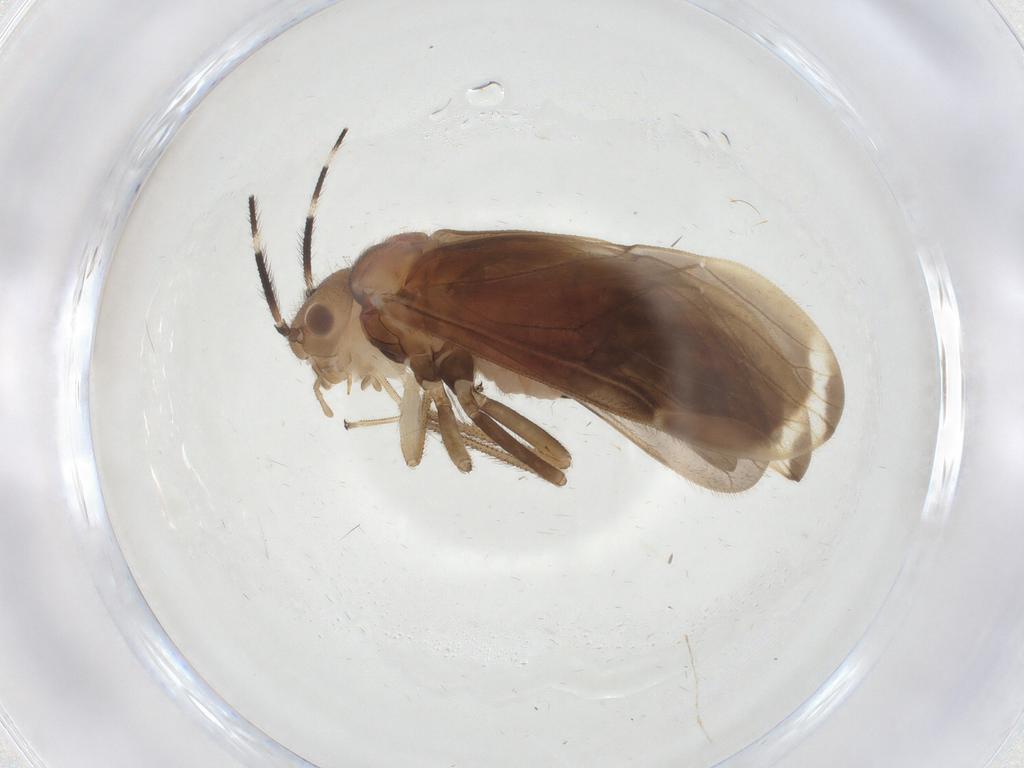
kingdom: Animalia
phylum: Arthropoda
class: Insecta
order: Psocodea
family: Amphipsocidae
